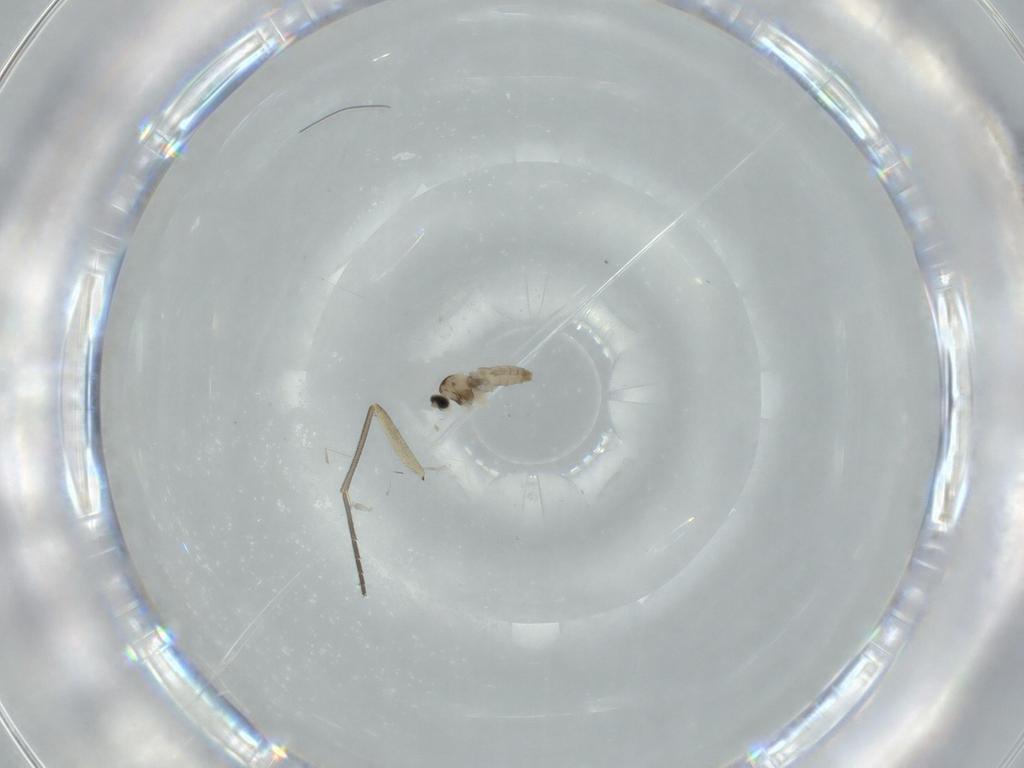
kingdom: Animalia
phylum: Arthropoda
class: Insecta
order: Diptera
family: Cecidomyiidae
